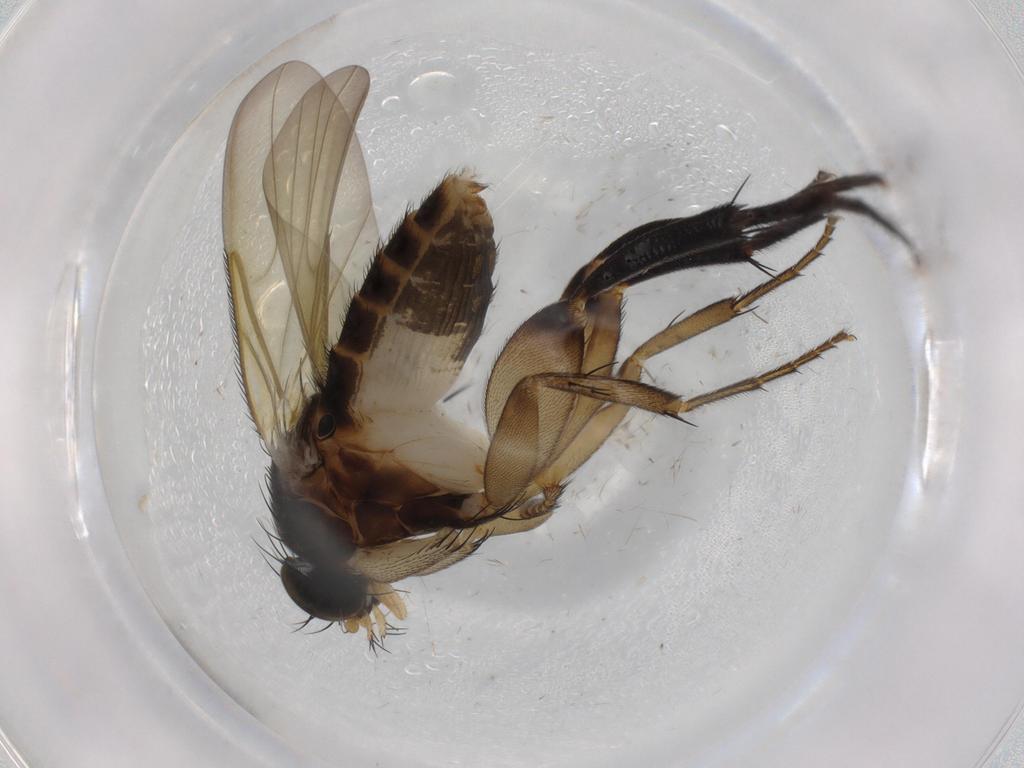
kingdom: Animalia
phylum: Arthropoda
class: Insecta
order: Diptera
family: Phoridae
